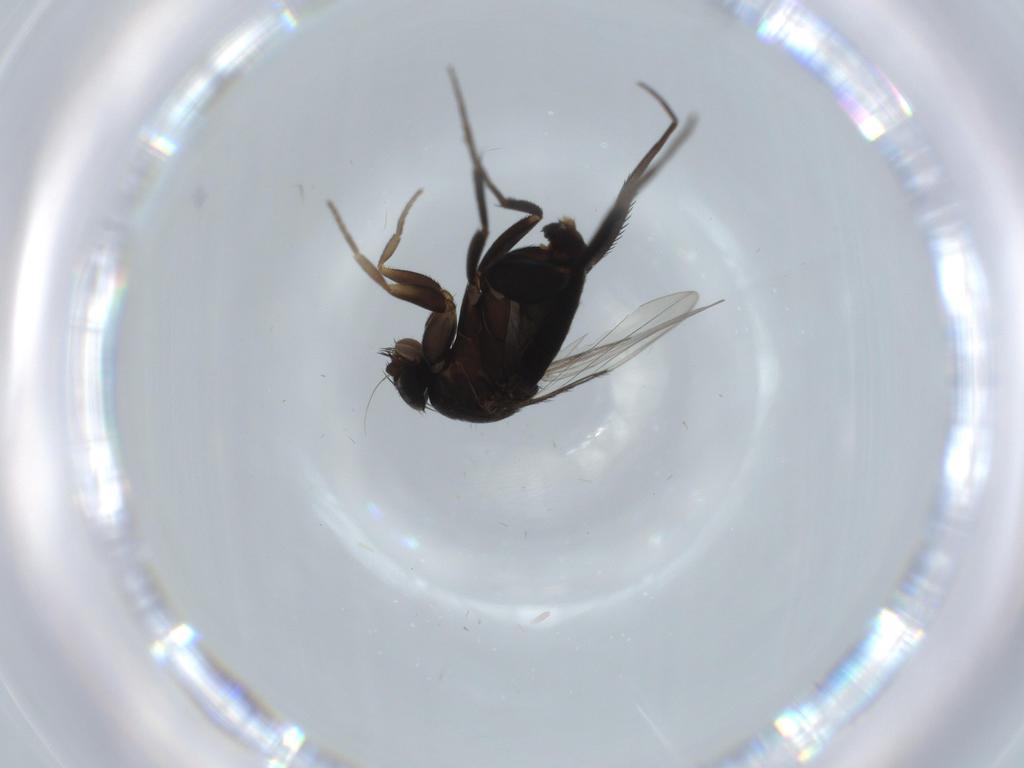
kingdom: Animalia
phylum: Arthropoda
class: Insecta
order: Diptera
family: Phoridae
